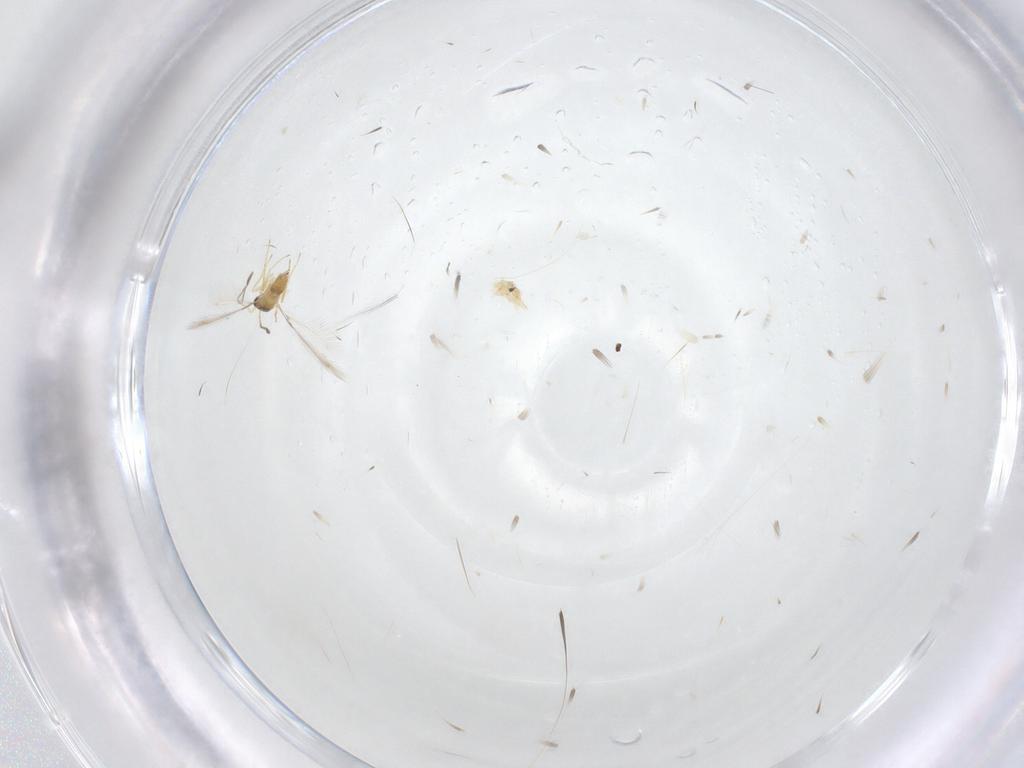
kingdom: Animalia
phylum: Arthropoda
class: Insecta
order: Hymenoptera
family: Mymaridae
